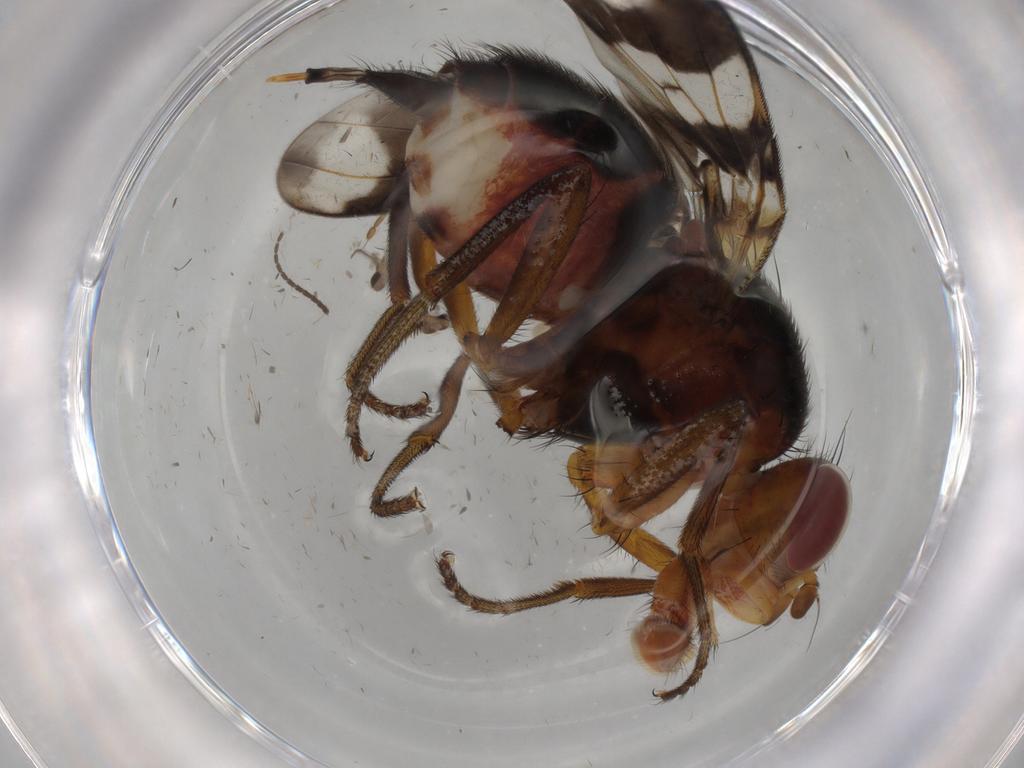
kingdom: Animalia
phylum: Arthropoda
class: Insecta
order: Diptera
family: Richardiidae
